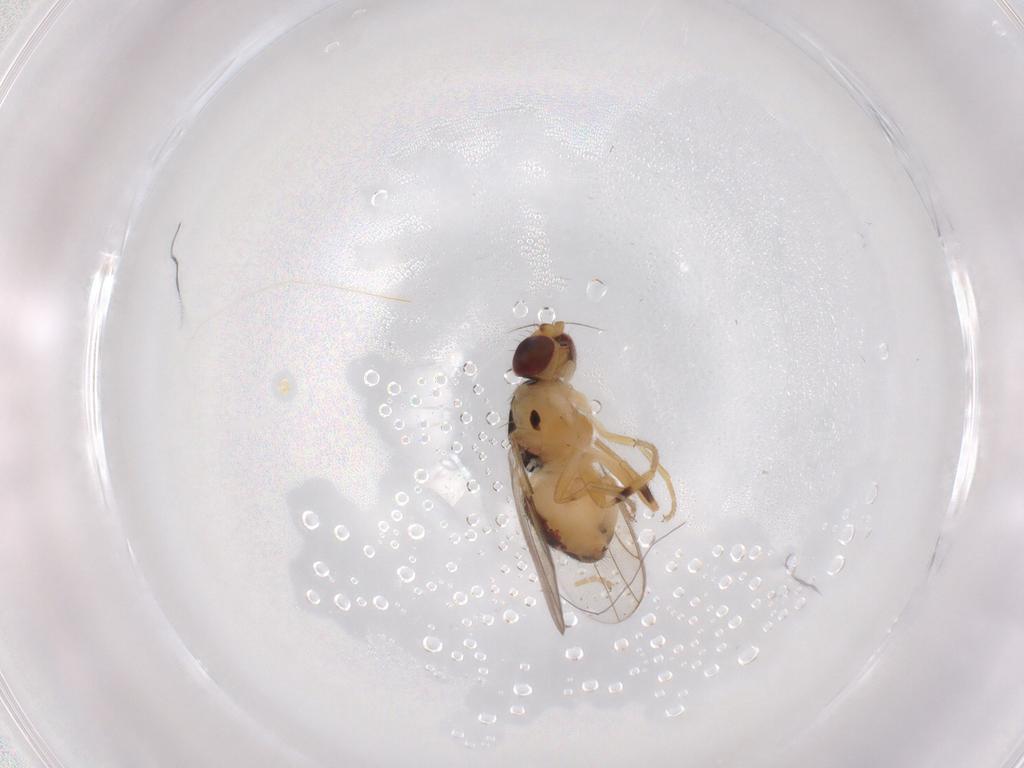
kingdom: Animalia
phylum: Arthropoda
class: Insecta
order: Diptera
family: Chloropidae
